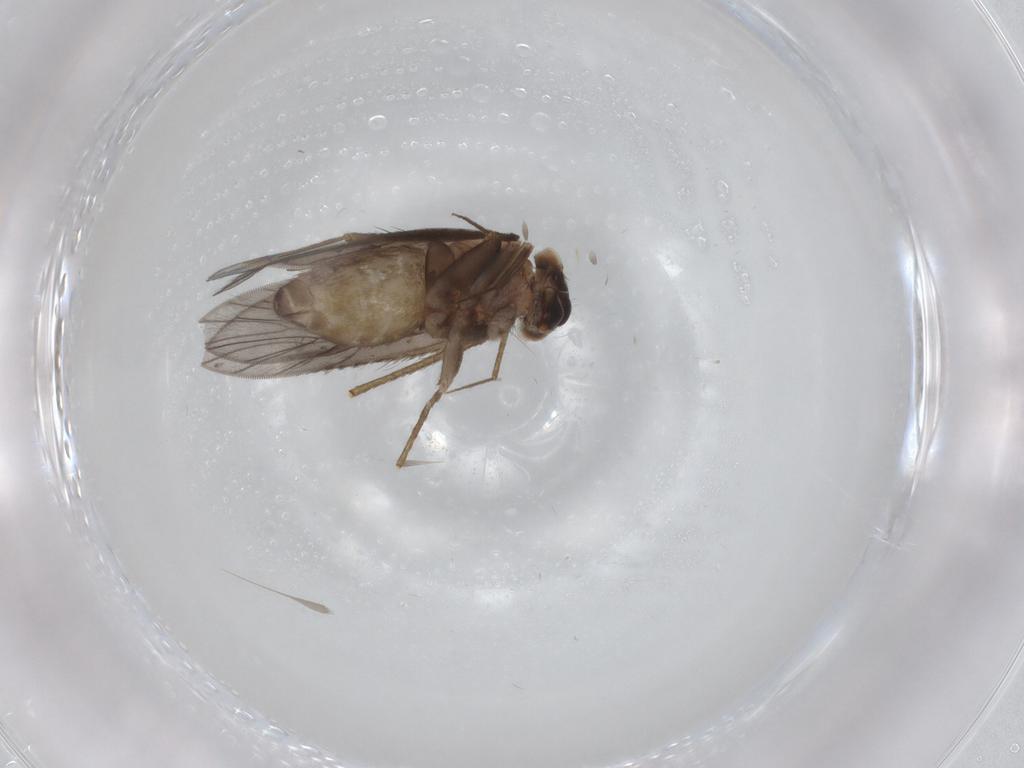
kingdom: Animalia
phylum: Arthropoda
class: Insecta
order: Psocodea
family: Lepidopsocidae
